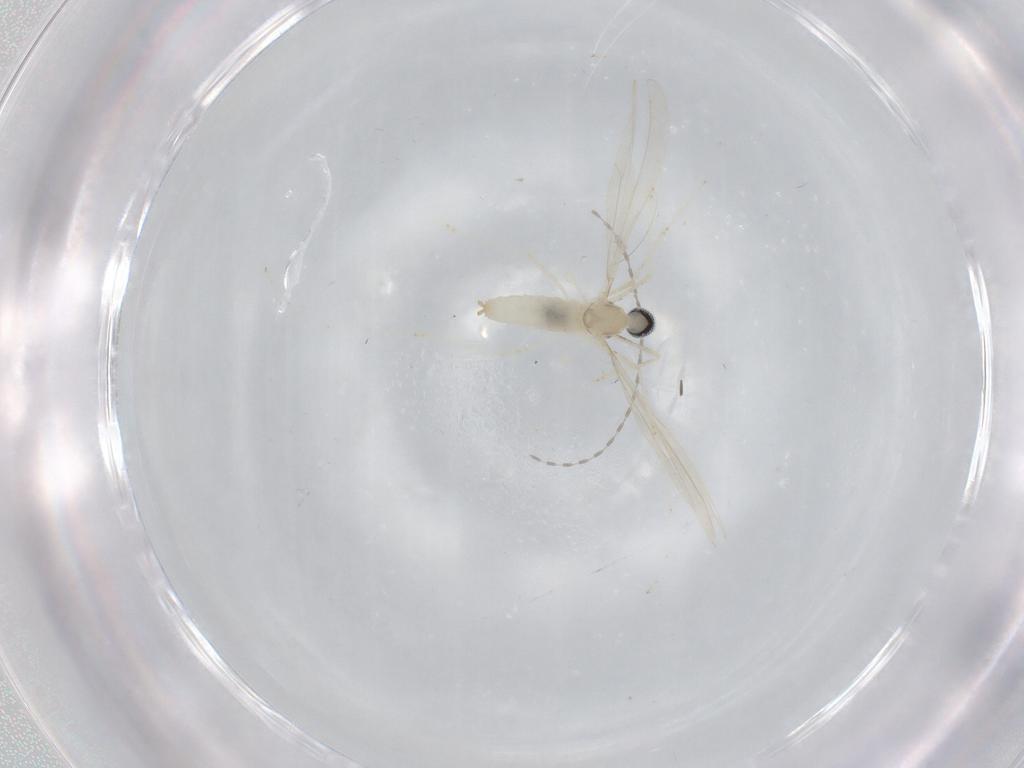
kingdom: Animalia
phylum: Arthropoda
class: Insecta
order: Diptera
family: Cecidomyiidae
